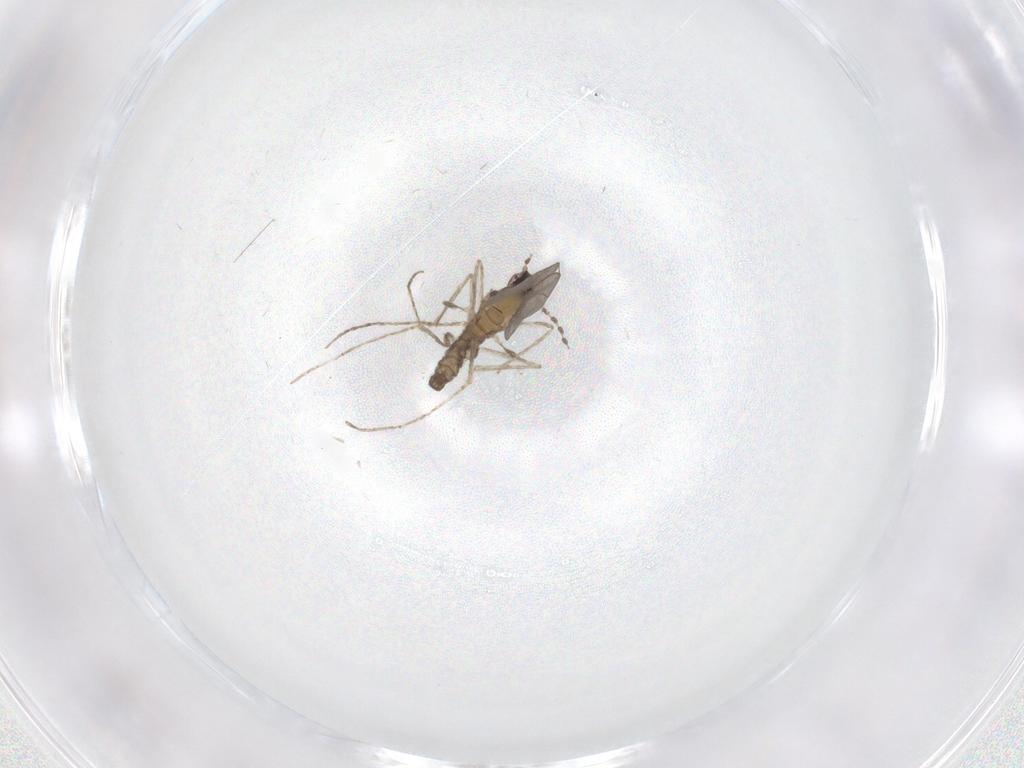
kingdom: Animalia
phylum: Arthropoda
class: Insecta
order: Diptera
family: Cecidomyiidae
